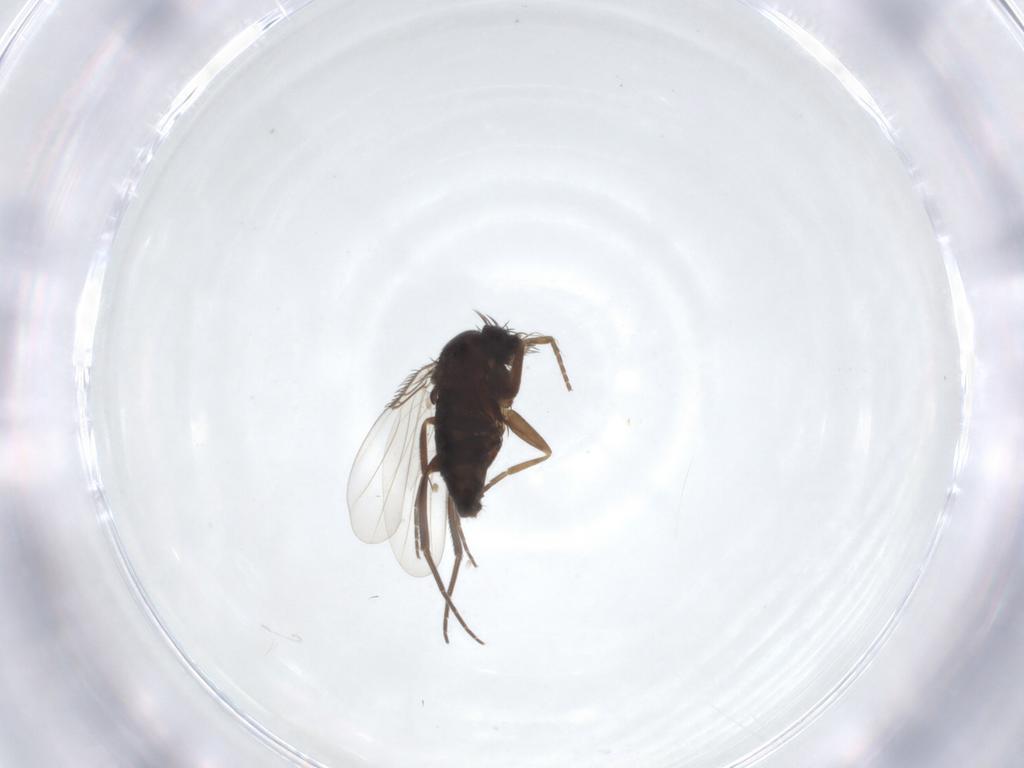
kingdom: Animalia
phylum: Arthropoda
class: Insecta
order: Diptera
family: Phoridae
